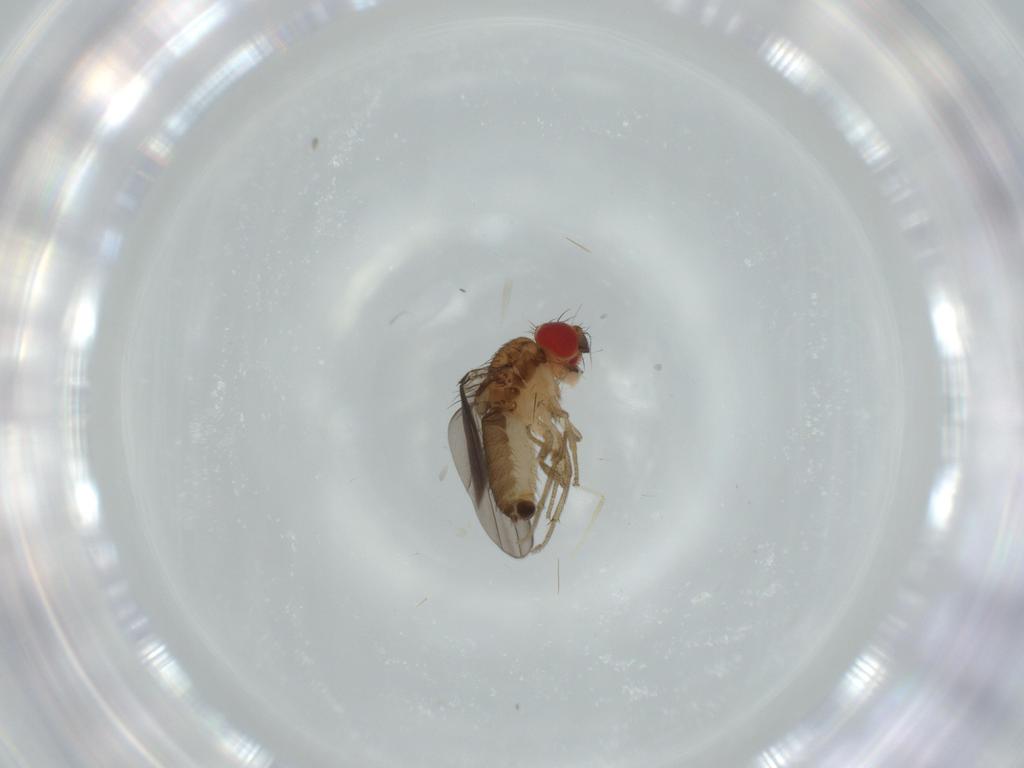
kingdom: Animalia
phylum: Arthropoda
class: Insecta
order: Diptera
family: Drosophilidae
